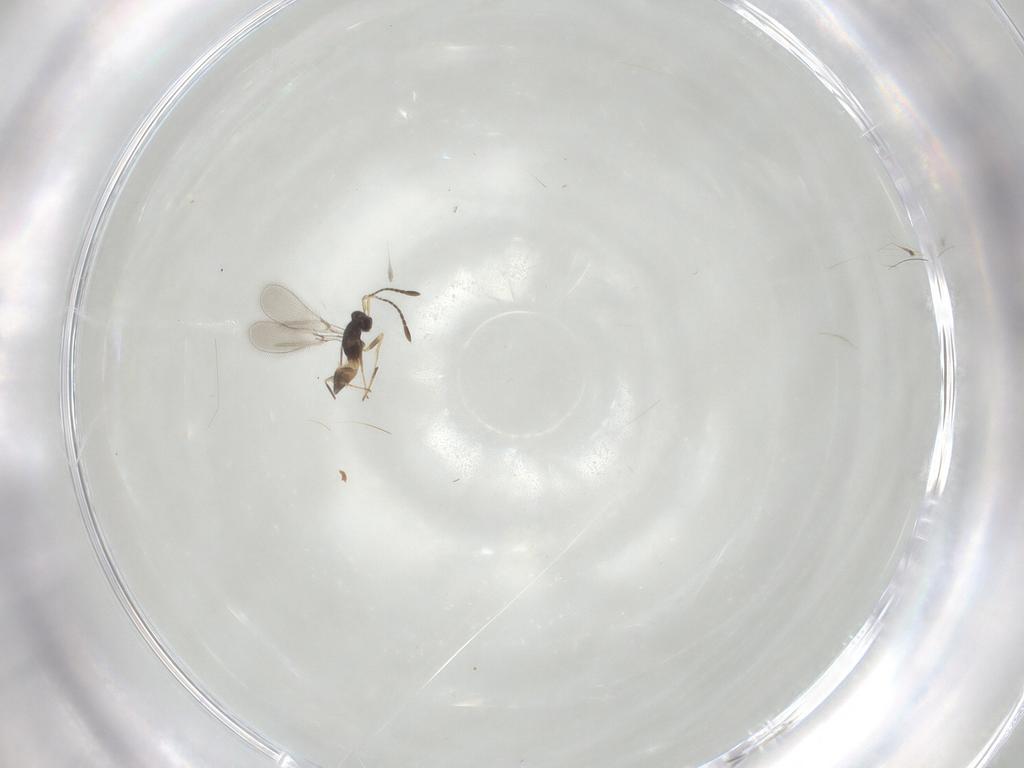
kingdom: Animalia
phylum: Arthropoda
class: Insecta
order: Hymenoptera
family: Mymaridae
